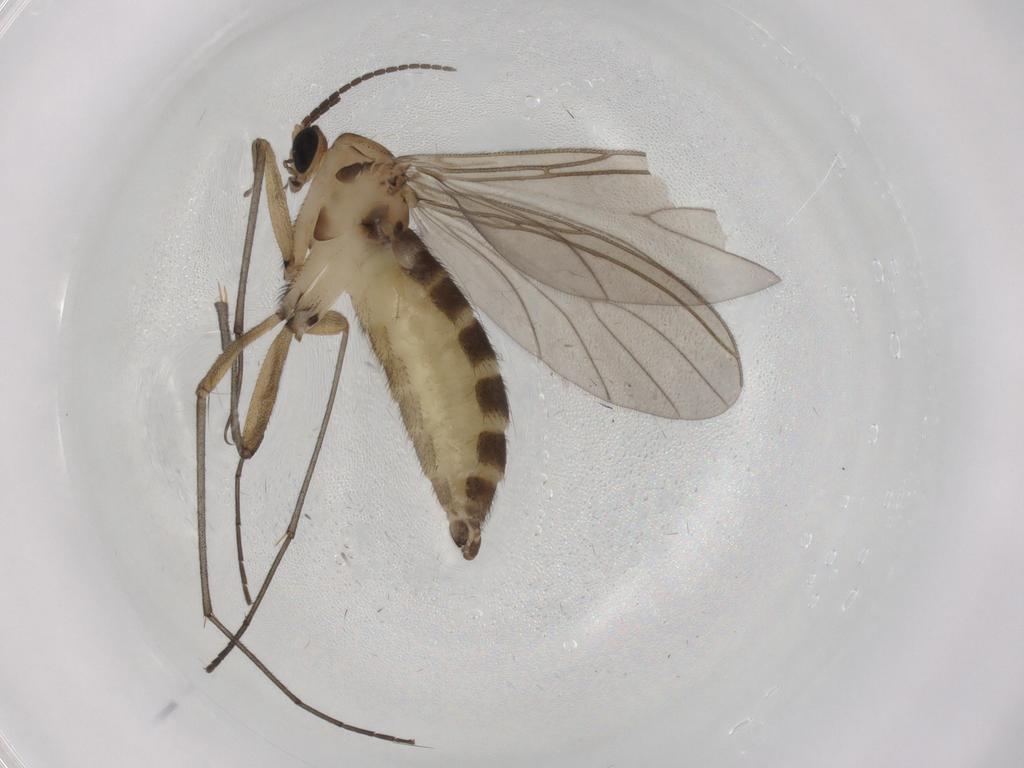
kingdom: Animalia
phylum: Arthropoda
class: Insecta
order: Diptera
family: Sciaridae
